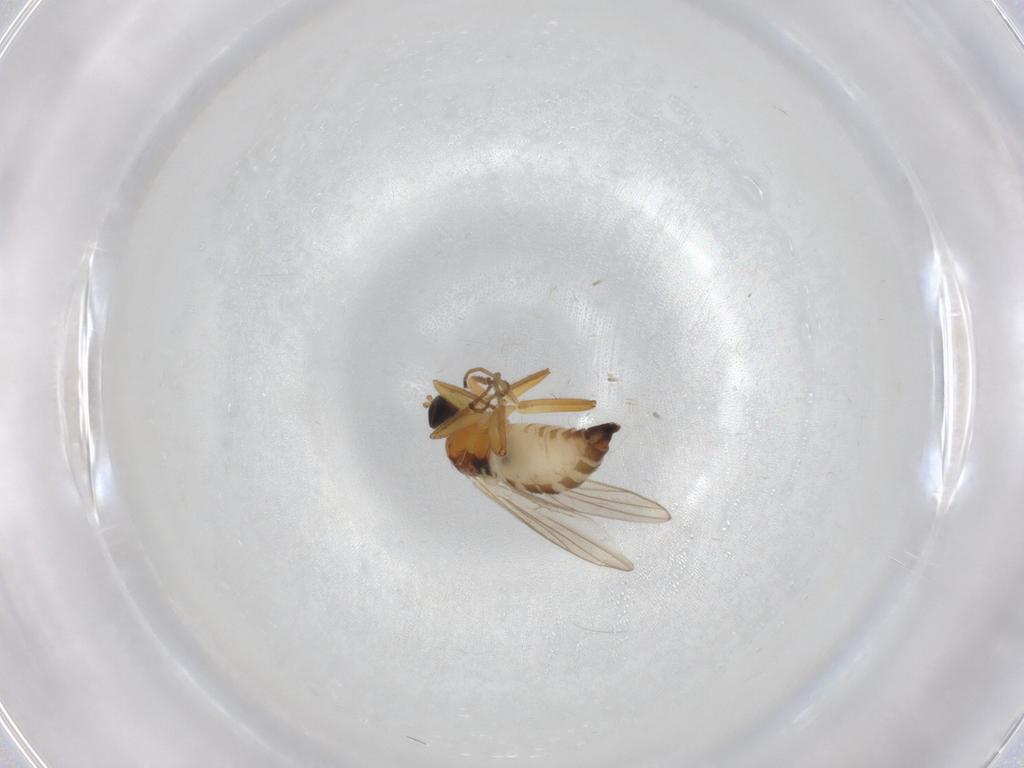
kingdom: Animalia
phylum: Arthropoda
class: Insecta
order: Diptera
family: Hybotidae
